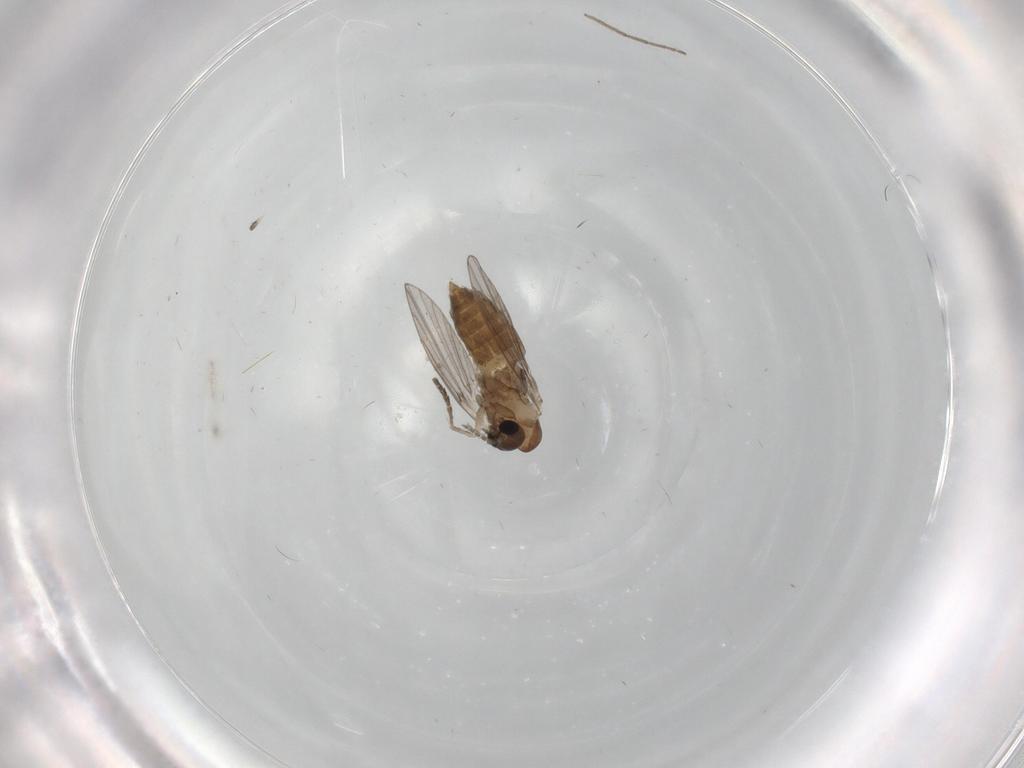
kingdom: Animalia
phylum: Arthropoda
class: Insecta
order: Diptera
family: Chironomidae
